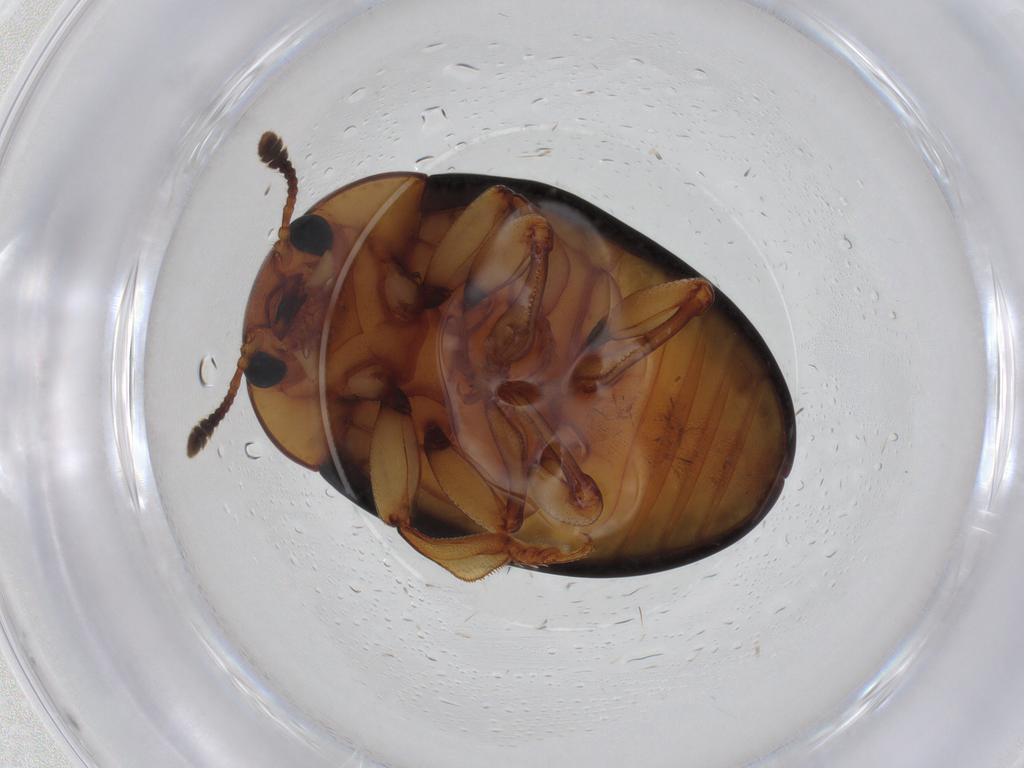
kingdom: Animalia
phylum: Arthropoda
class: Insecta
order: Coleoptera
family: Erotylidae
